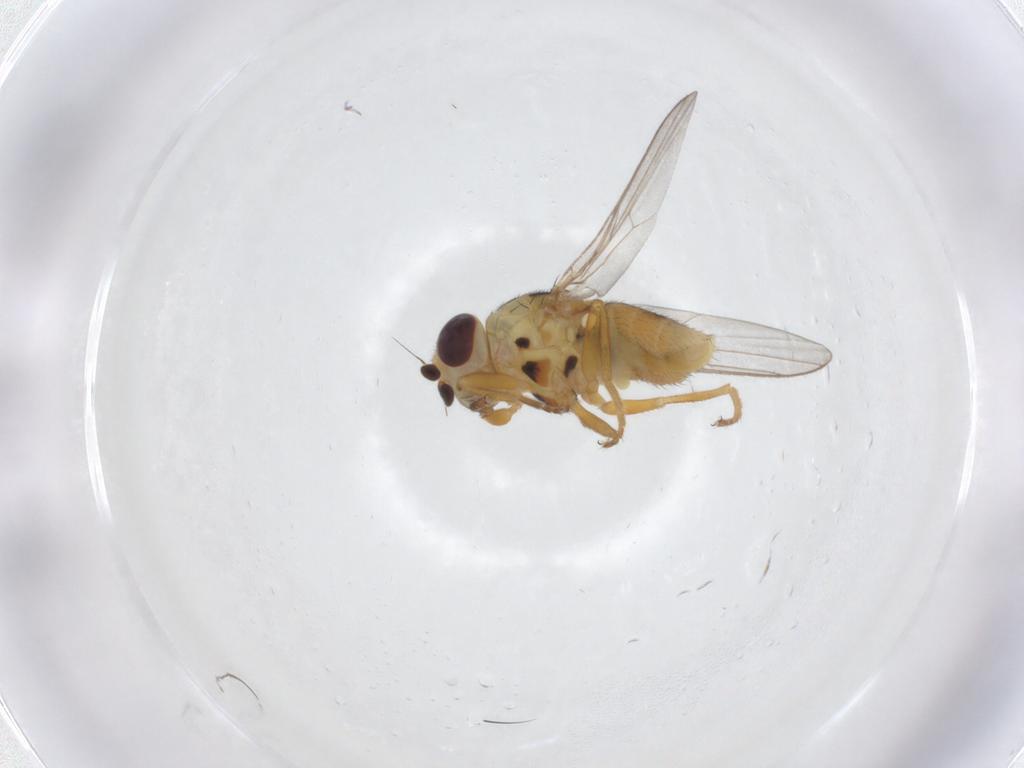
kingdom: Animalia
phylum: Arthropoda
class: Insecta
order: Diptera
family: Chloropidae
